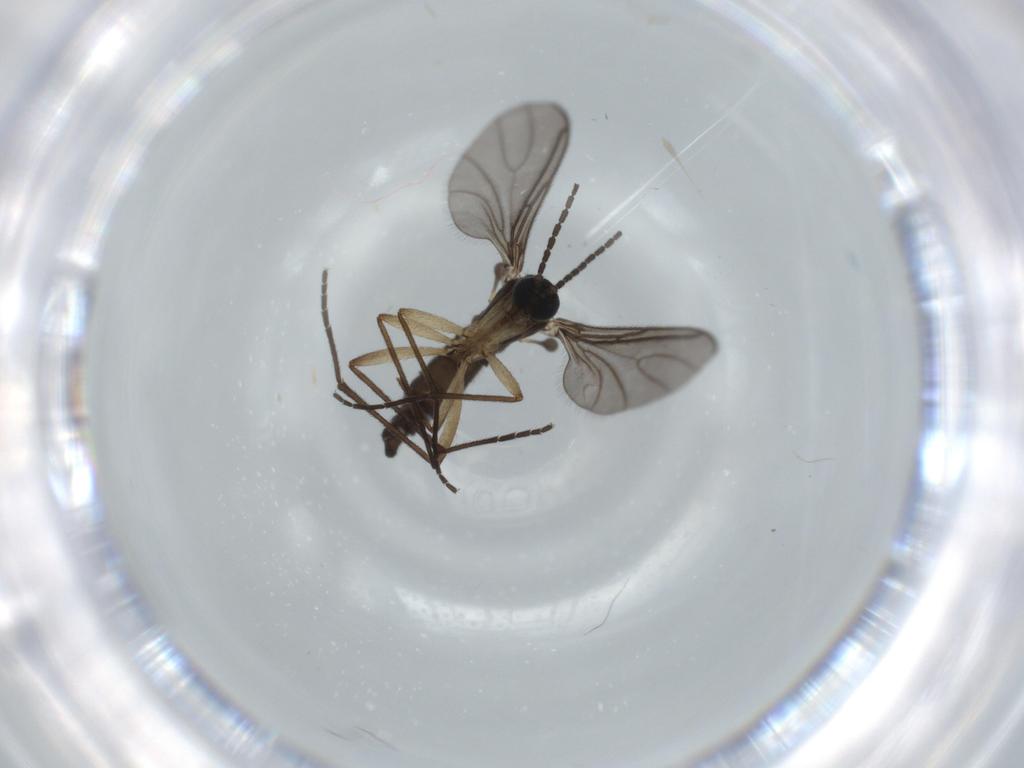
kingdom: Animalia
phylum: Arthropoda
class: Insecta
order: Diptera
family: Sciaridae
